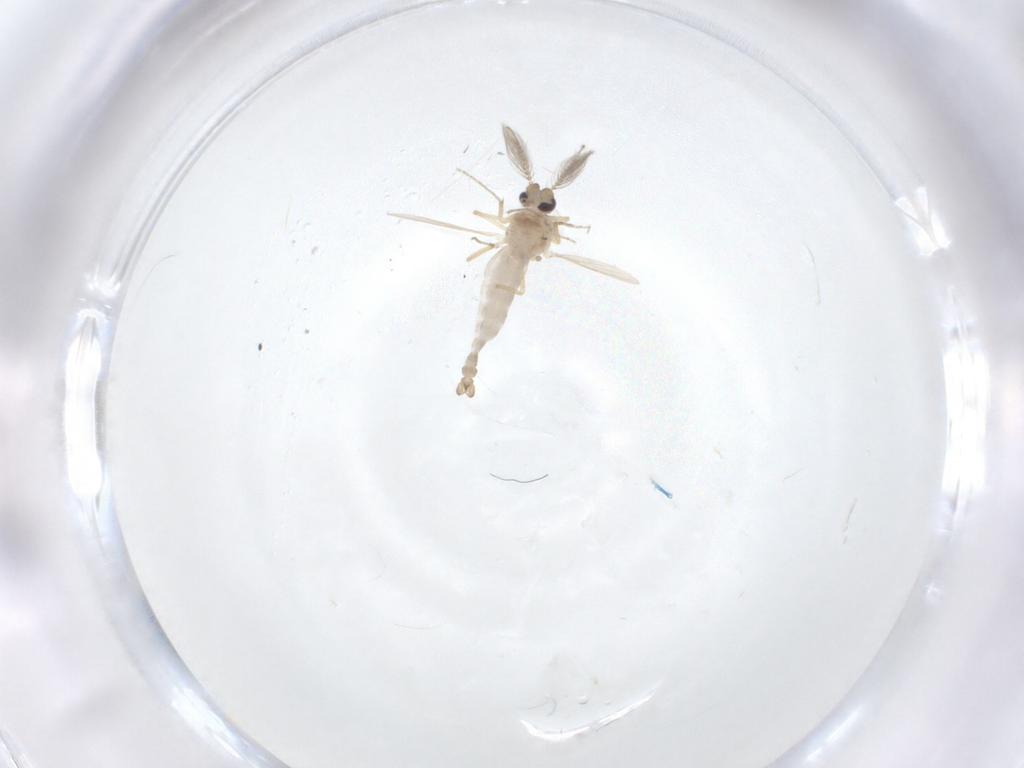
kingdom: Animalia
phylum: Arthropoda
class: Insecta
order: Diptera
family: Ceratopogonidae
